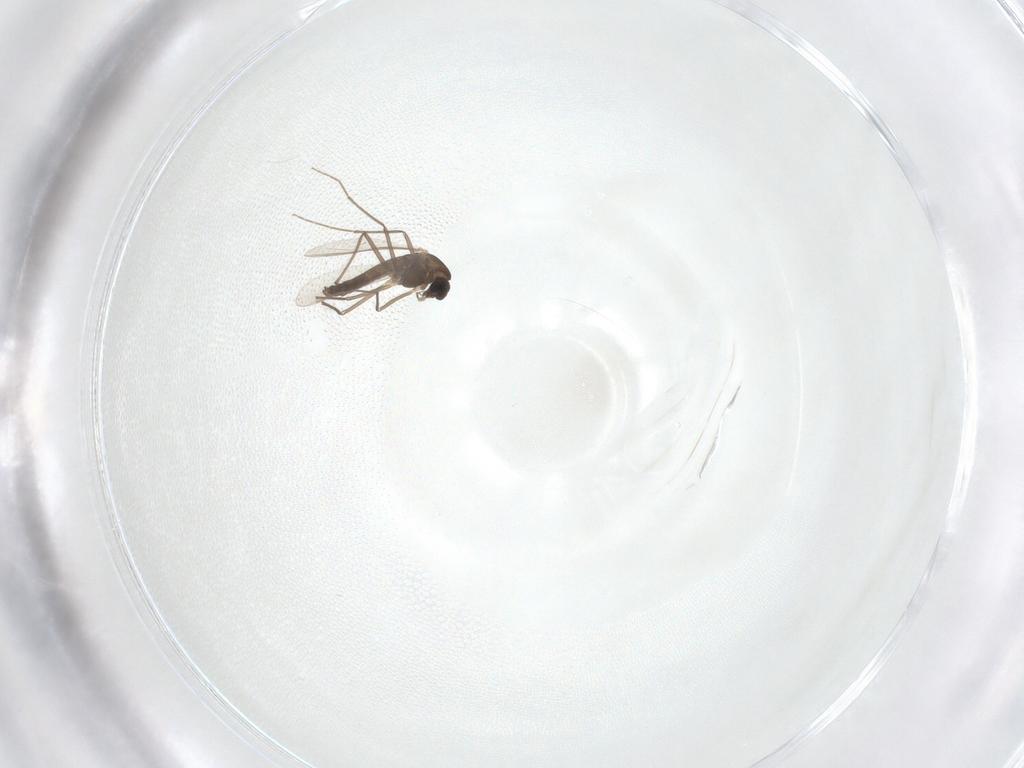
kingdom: Animalia
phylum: Arthropoda
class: Insecta
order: Diptera
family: Chironomidae
